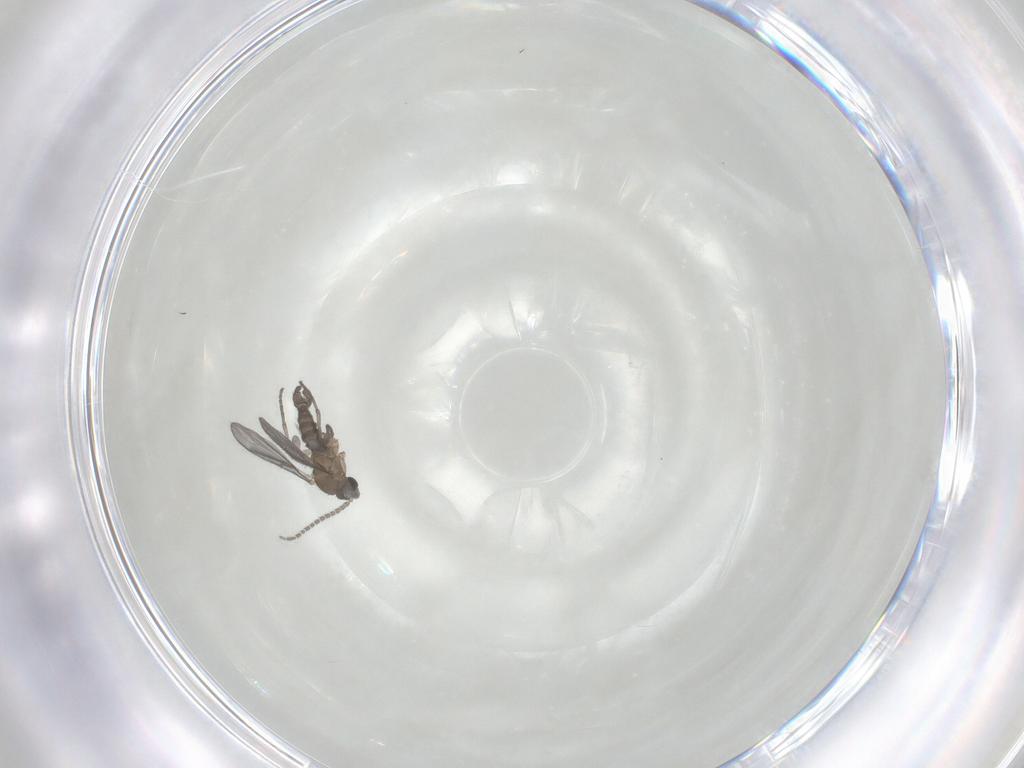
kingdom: Animalia
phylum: Arthropoda
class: Insecta
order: Diptera
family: Sciaridae
